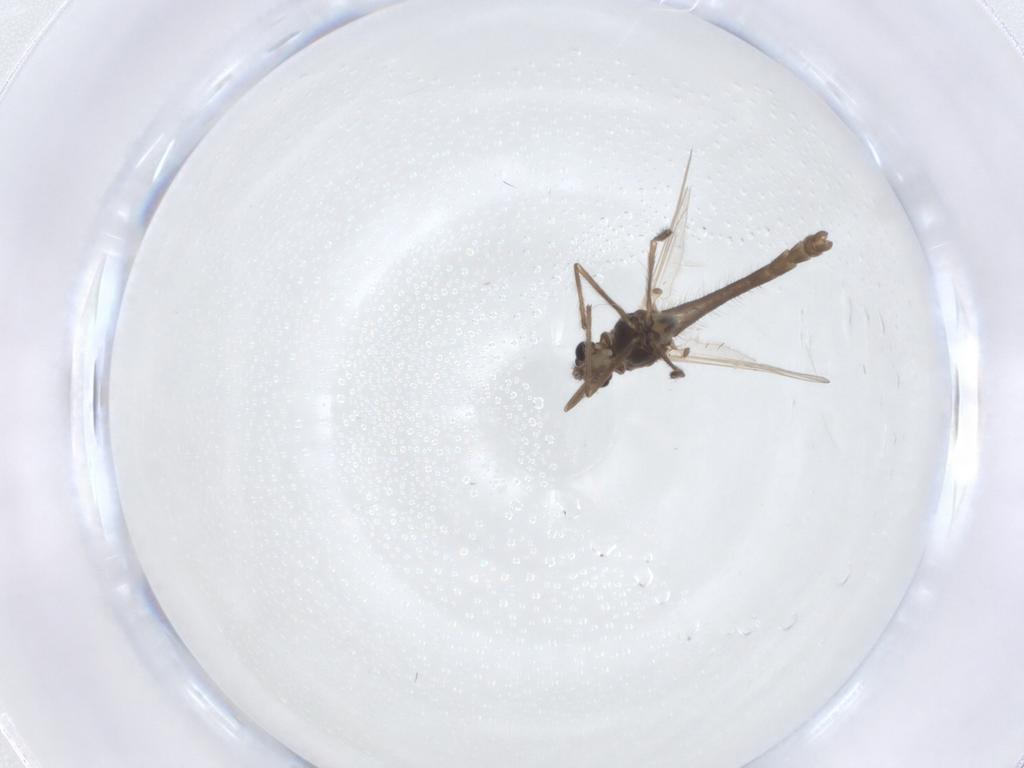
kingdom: Animalia
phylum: Arthropoda
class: Insecta
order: Diptera
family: Chironomidae
